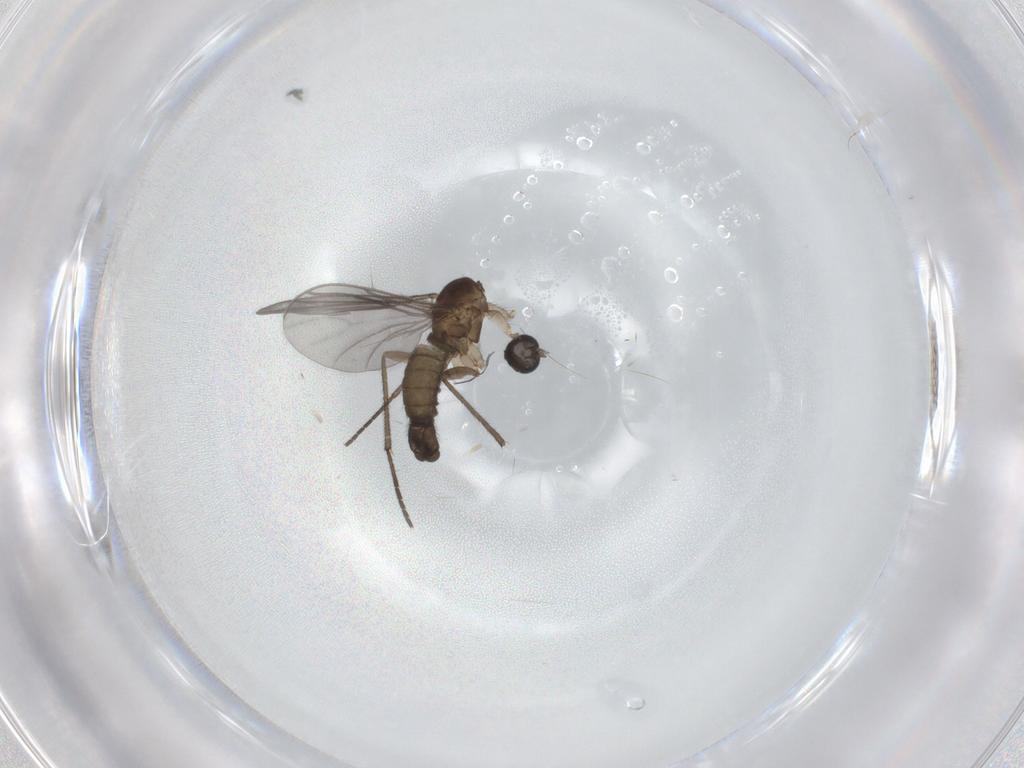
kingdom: Animalia
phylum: Arthropoda
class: Insecta
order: Diptera
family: Sciaridae
